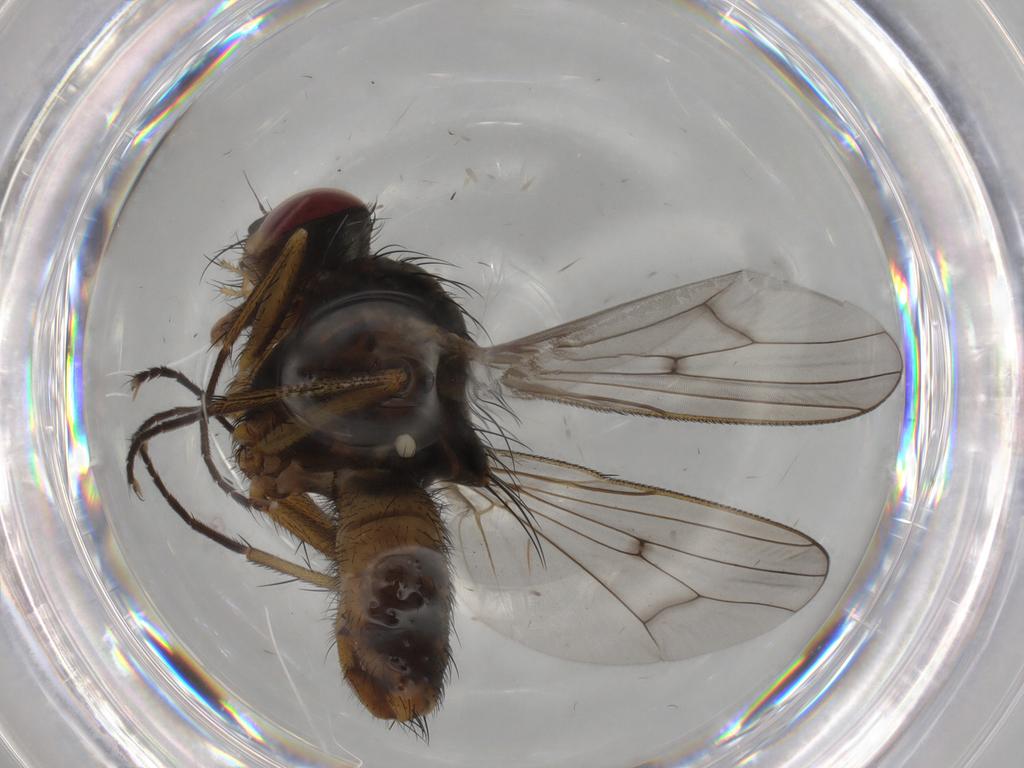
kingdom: Animalia
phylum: Arthropoda
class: Insecta
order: Diptera
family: Anthomyiidae
